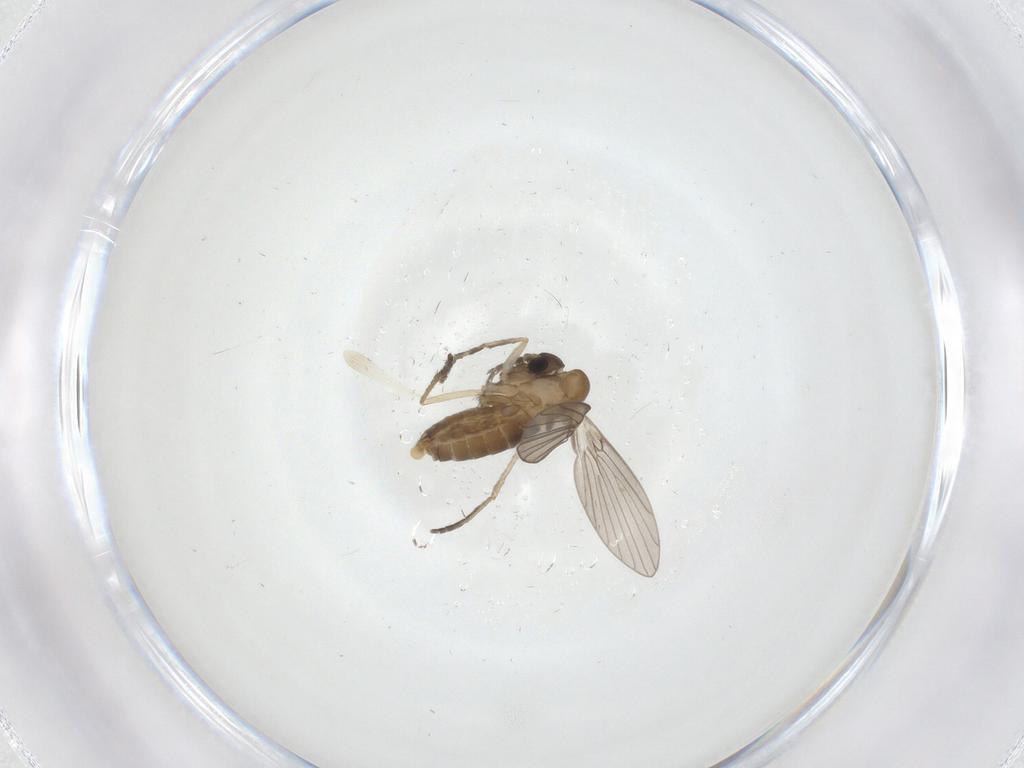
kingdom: Animalia
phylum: Arthropoda
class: Insecta
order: Diptera
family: Sciaridae
